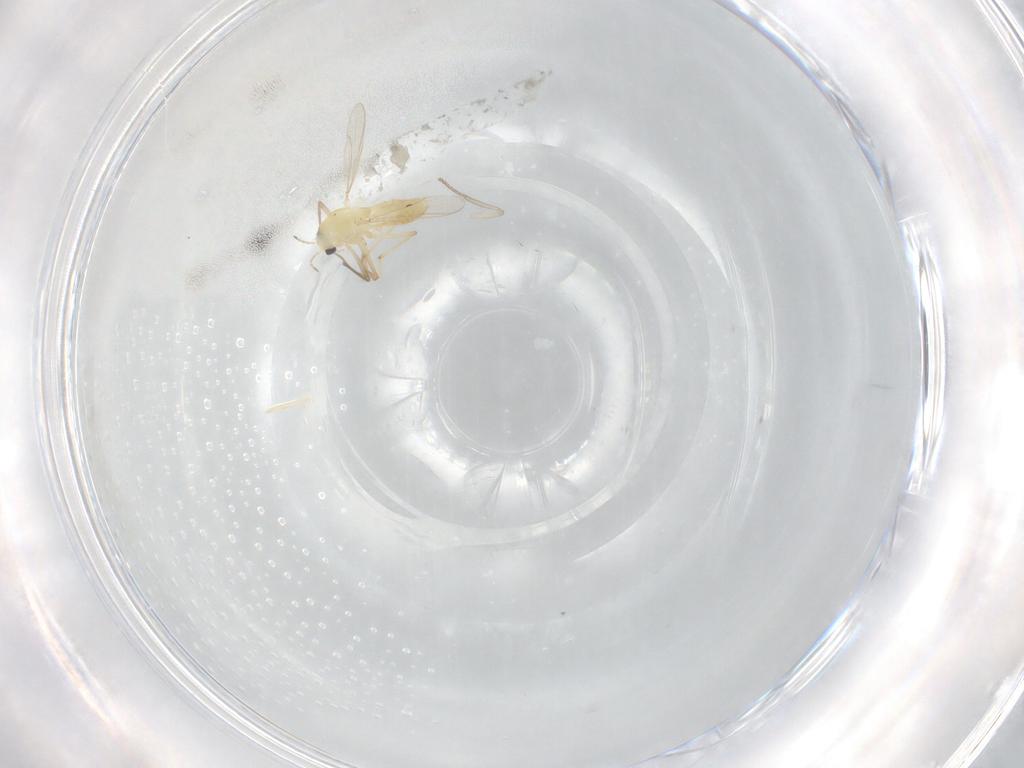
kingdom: Animalia
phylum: Arthropoda
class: Insecta
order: Diptera
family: Chironomidae
